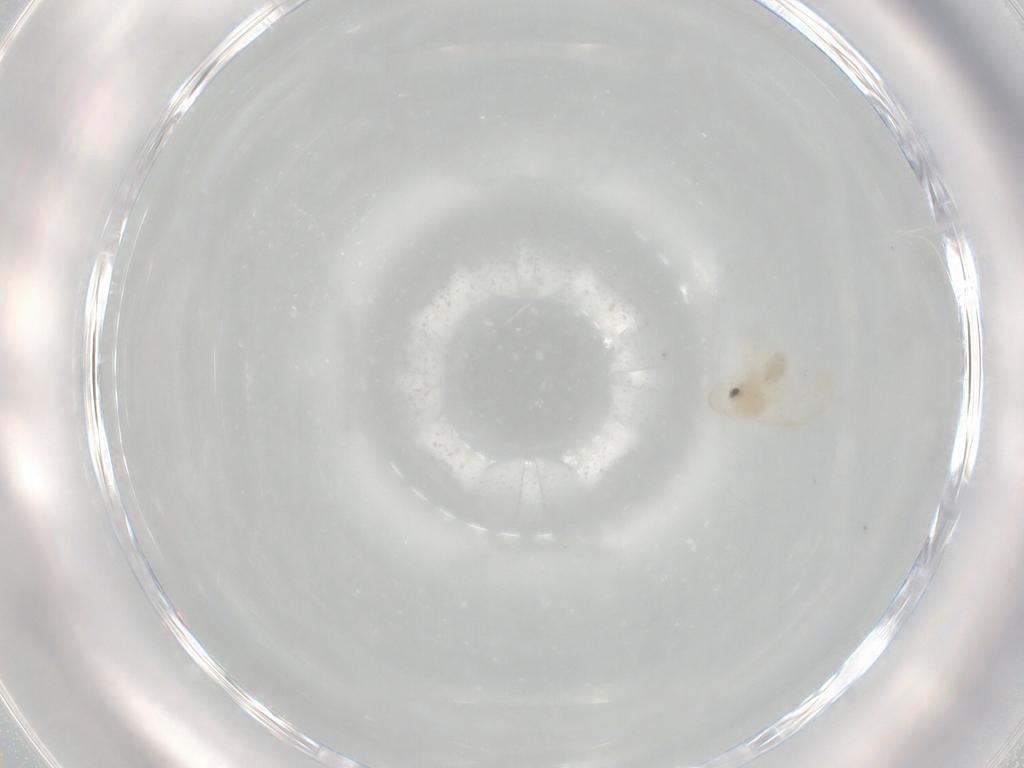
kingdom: Animalia
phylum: Arthropoda
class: Insecta
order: Hemiptera
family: Aleyrodidae
